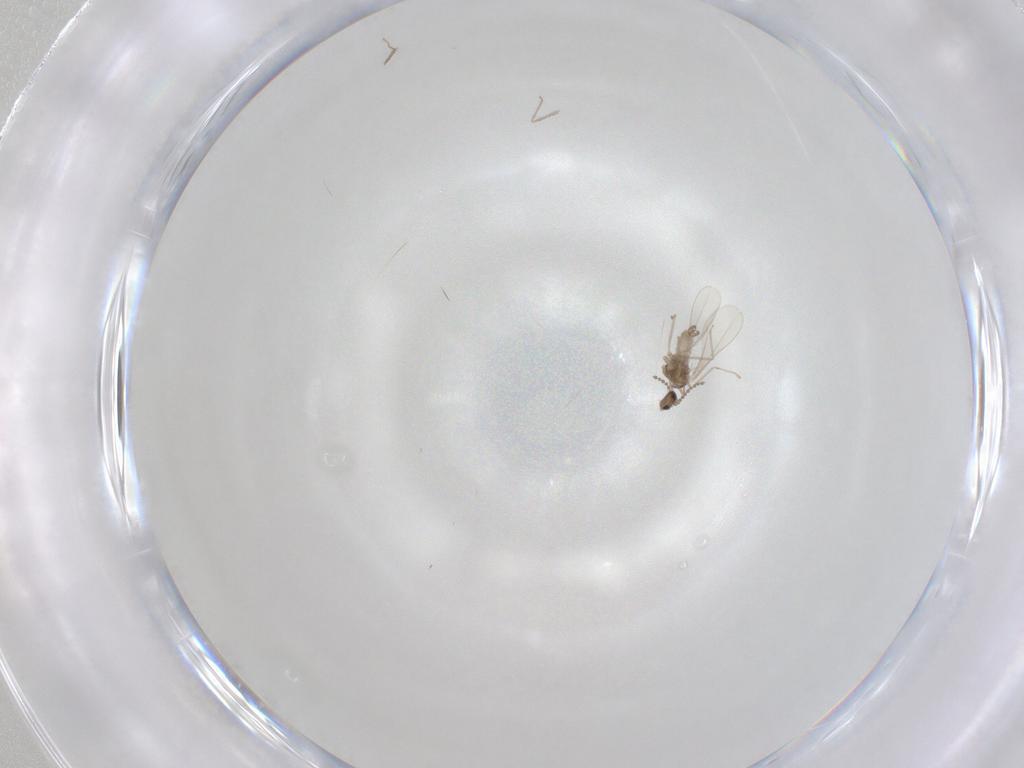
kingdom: Animalia
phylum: Arthropoda
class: Insecta
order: Diptera
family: Cecidomyiidae
